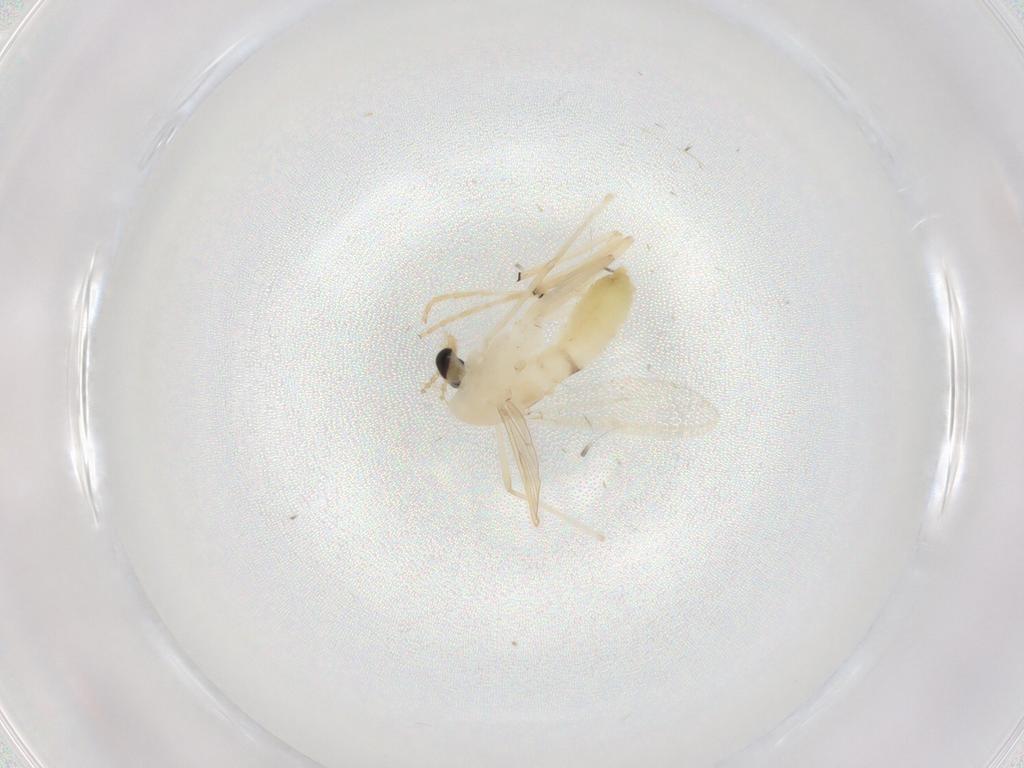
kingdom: Animalia
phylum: Arthropoda
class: Insecta
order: Diptera
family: Chironomidae
